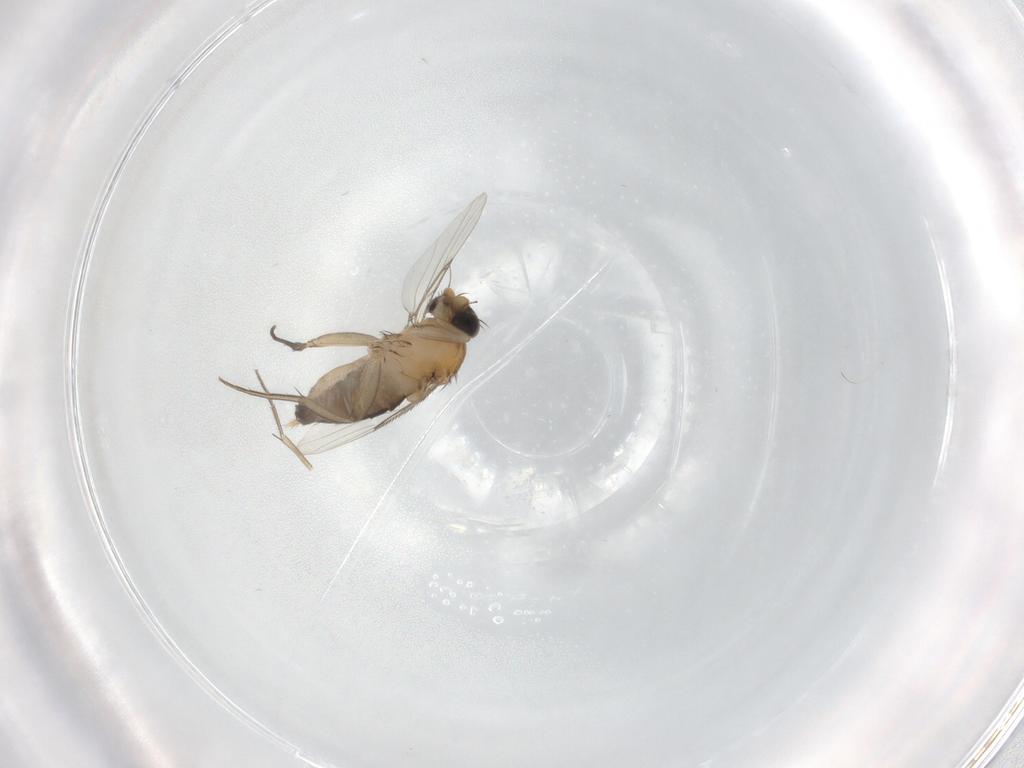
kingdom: Animalia
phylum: Arthropoda
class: Insecta
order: Diptera
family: Phoridae
